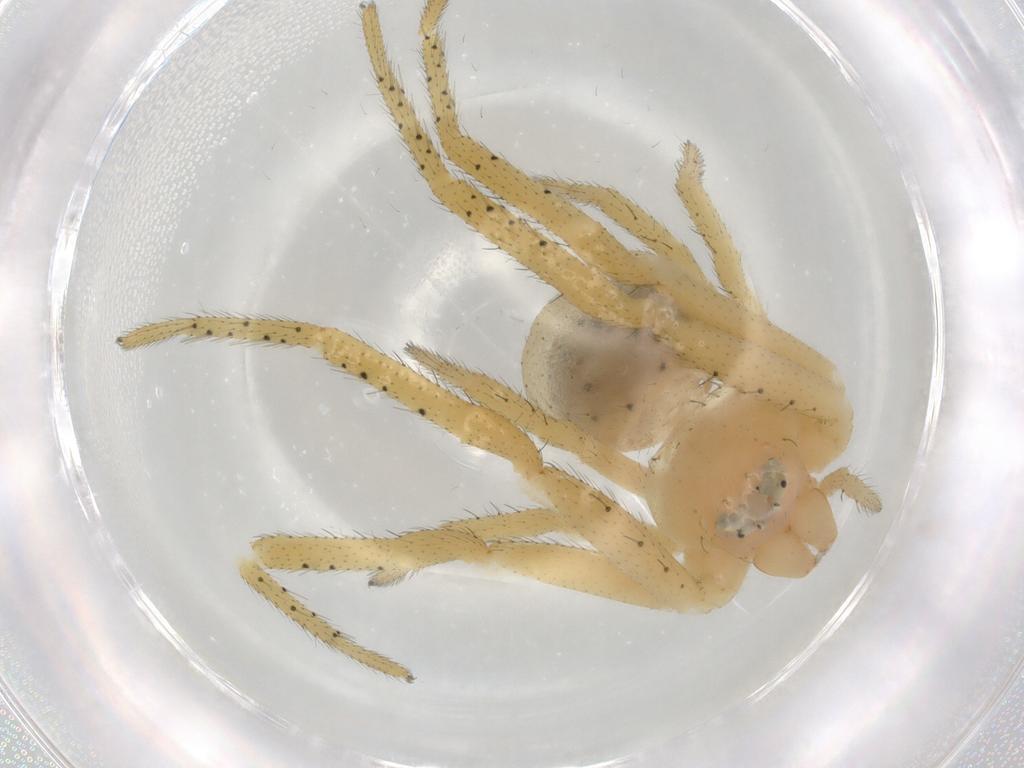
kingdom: Animalia
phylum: Arthropoda
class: Arachnida
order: Araneae
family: Thomisidae
